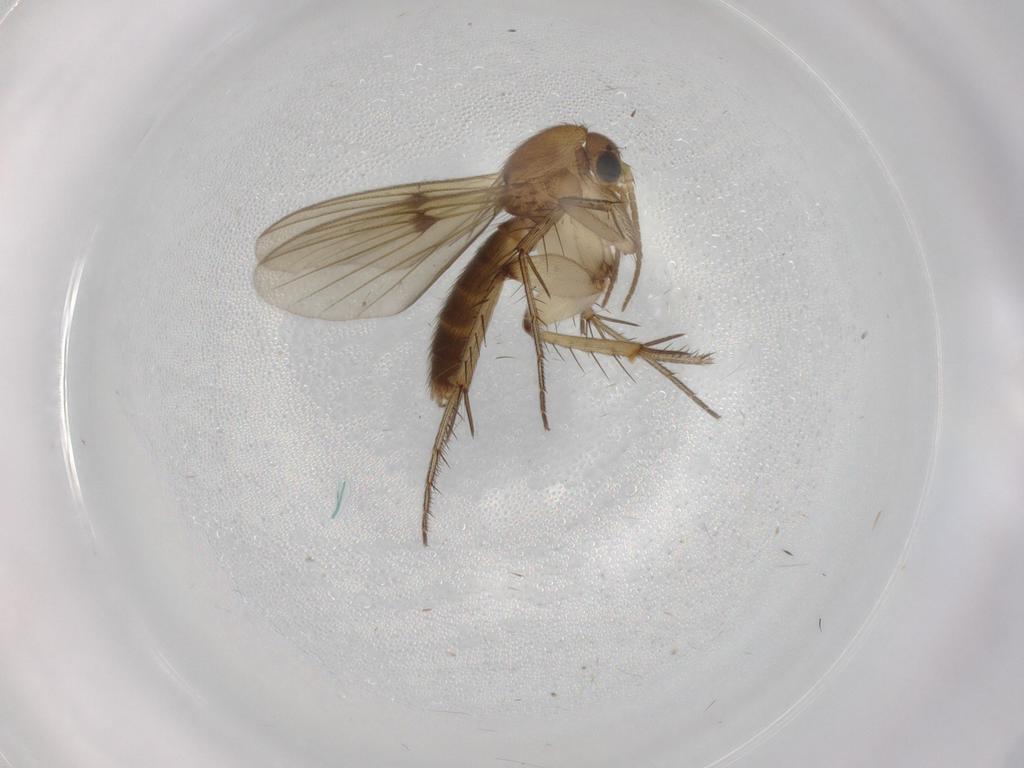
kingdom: Animalia
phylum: Arthropoda
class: Insecta
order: Diptera
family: Mycetophilidae
